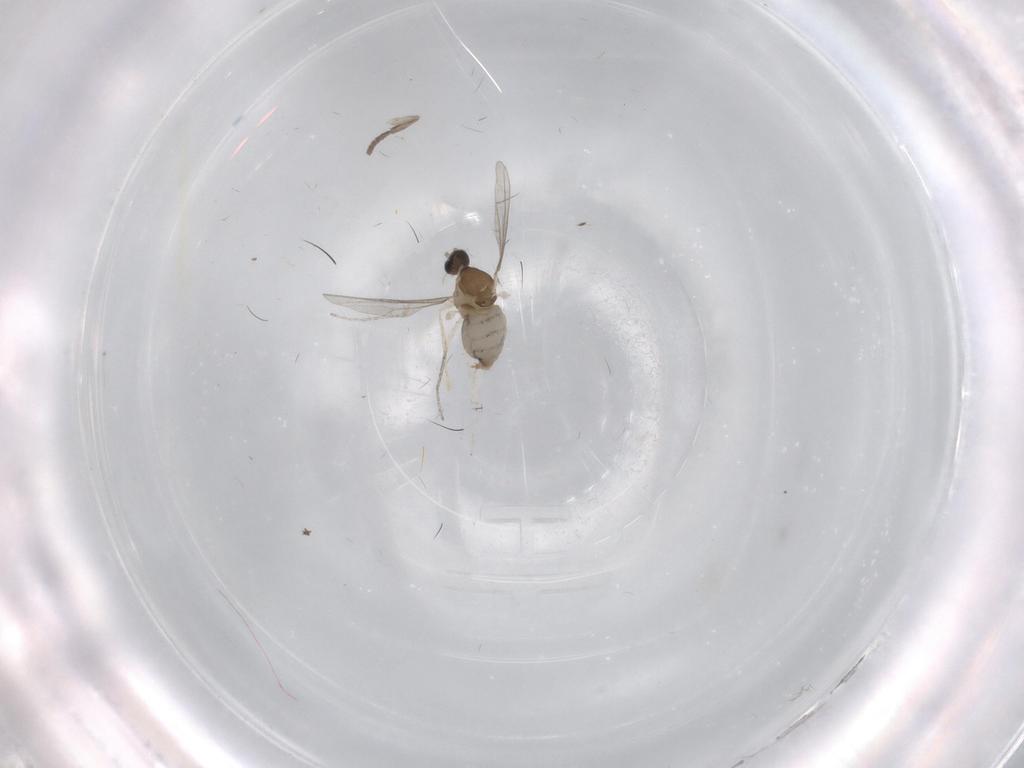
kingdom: Animalia
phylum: Arthropoda
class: Insecta
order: Diptera
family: Psychodidae
